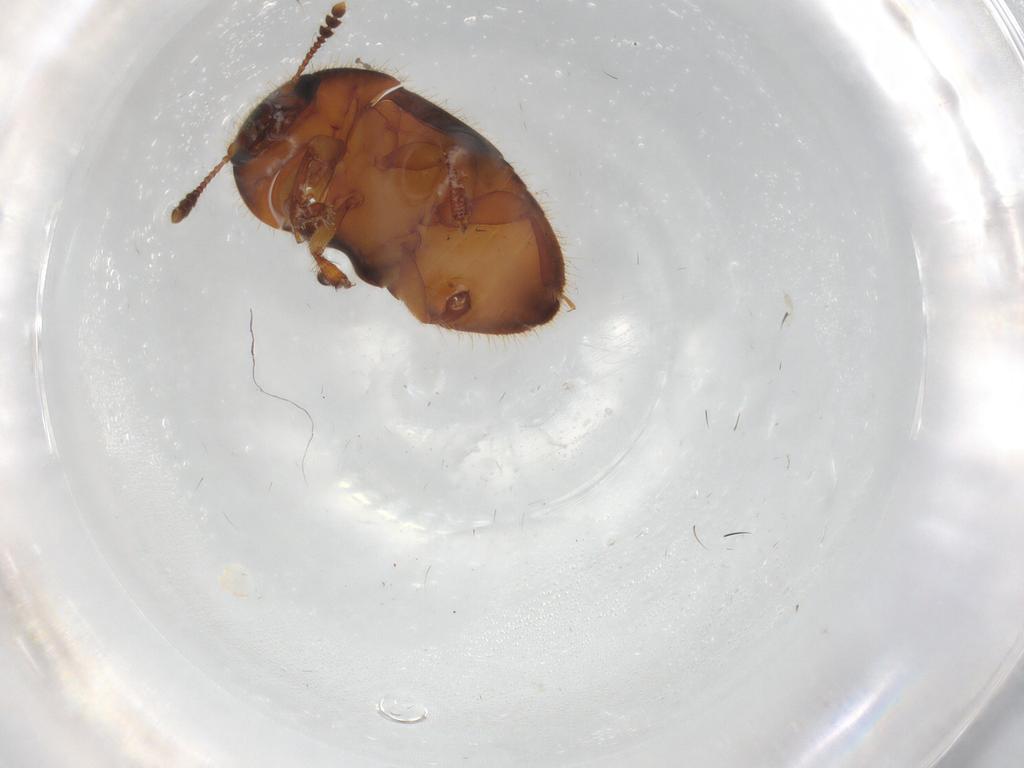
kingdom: Animalia
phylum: Arthropoda
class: Insecta
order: Coleoptera
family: Nitidulidae
